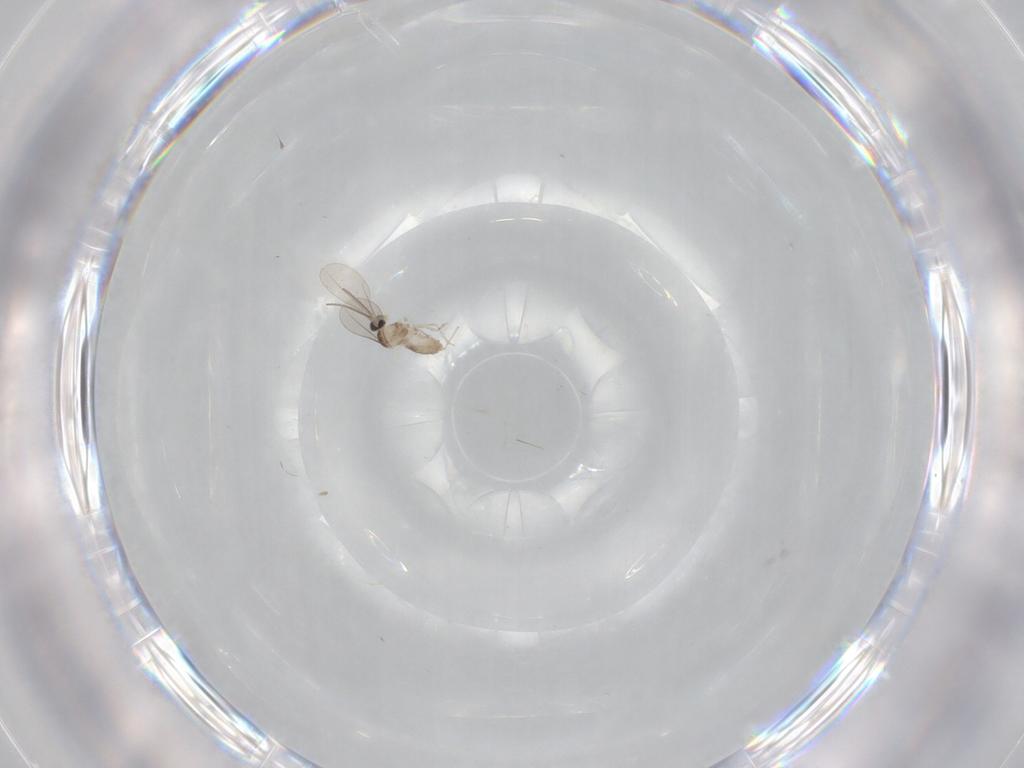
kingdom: Animalia
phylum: Arthropoda
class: Insecta
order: Diptera
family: Cecidomyiidae
